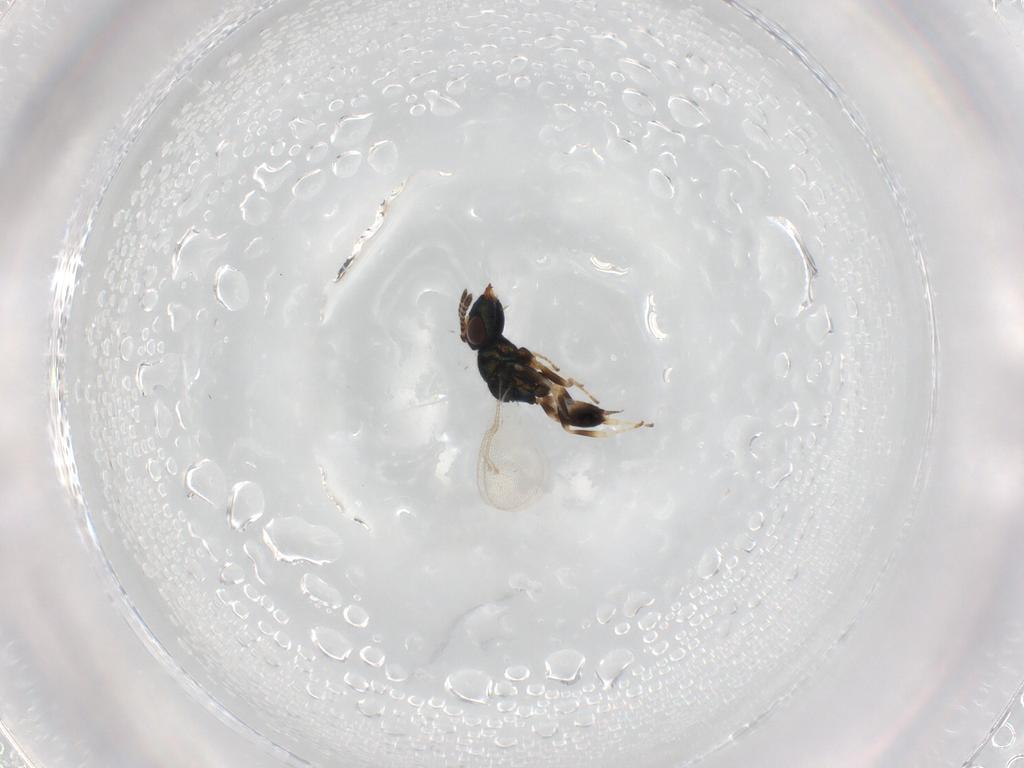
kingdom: Animalia
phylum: Arthropoda
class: Insecta
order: Hymenoptera
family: Pteromalidae
